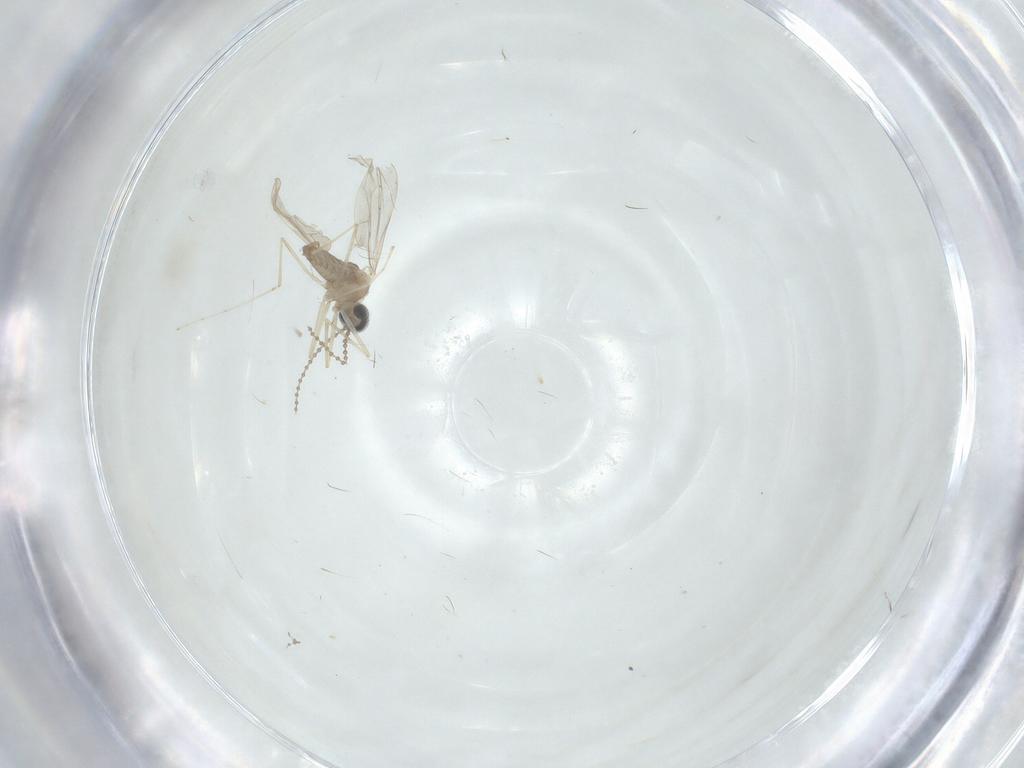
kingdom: Animalia
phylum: Arthropoda
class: Insecta
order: Diptera
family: Cecidomyiidae
